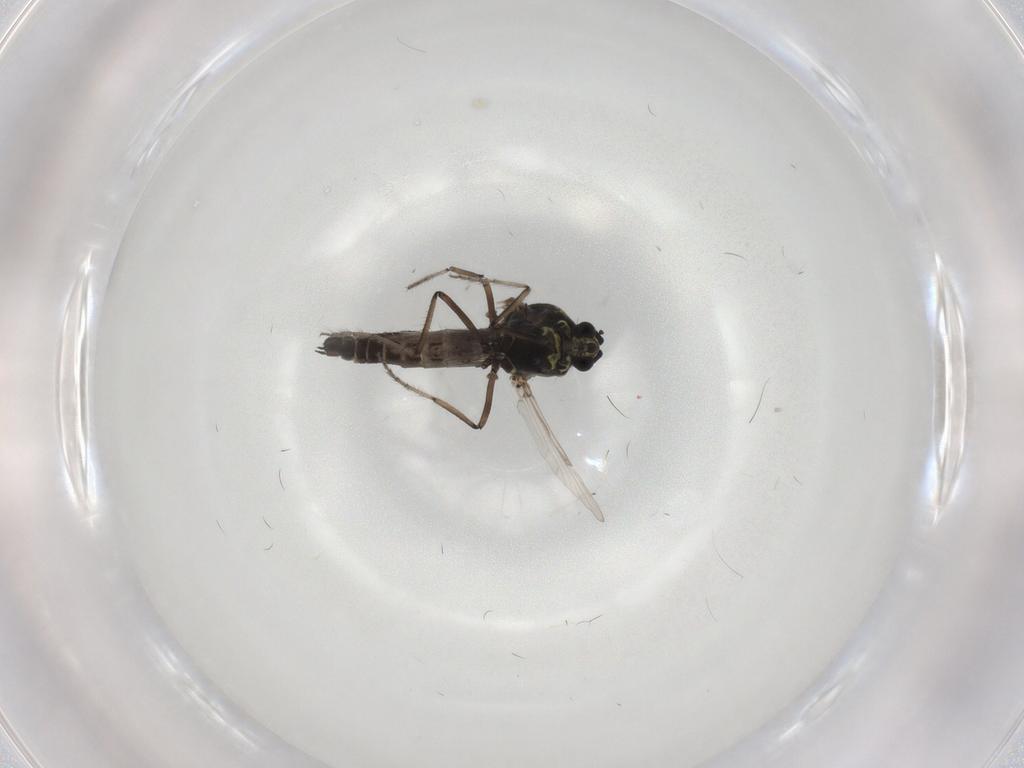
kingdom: Animalia
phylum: Arthropoda
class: Insecta
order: Diptera
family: Ceratopogonidae
